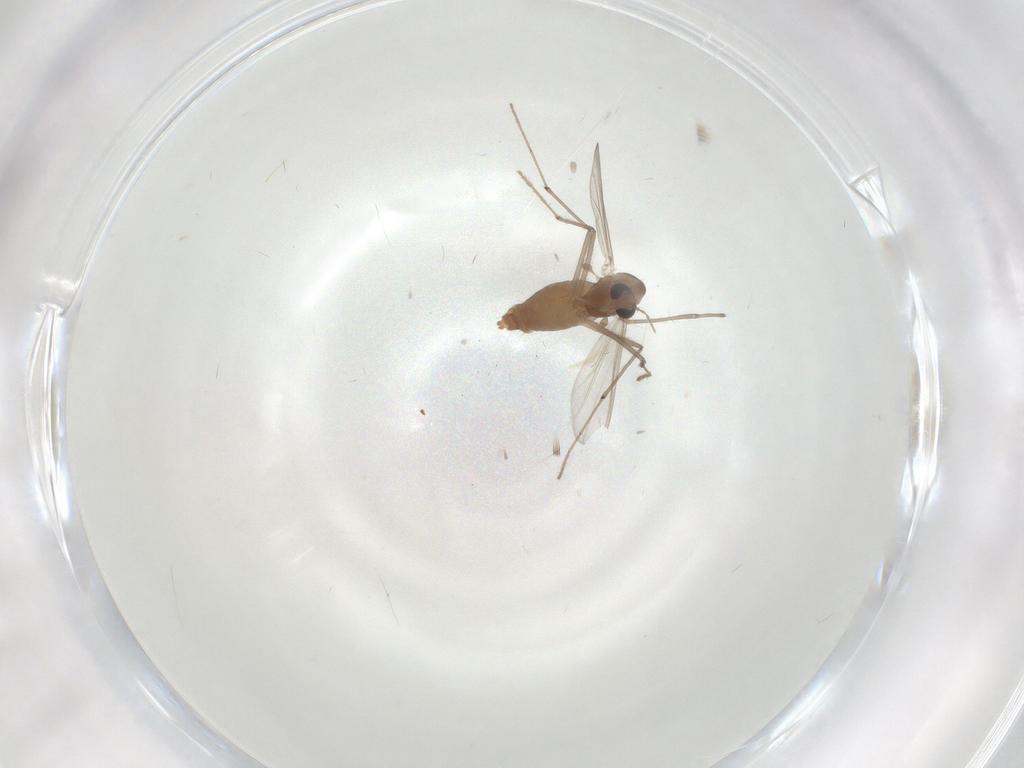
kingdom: Animalia
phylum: Arthropoda
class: Insecta
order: Diptera
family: Chironomidae
